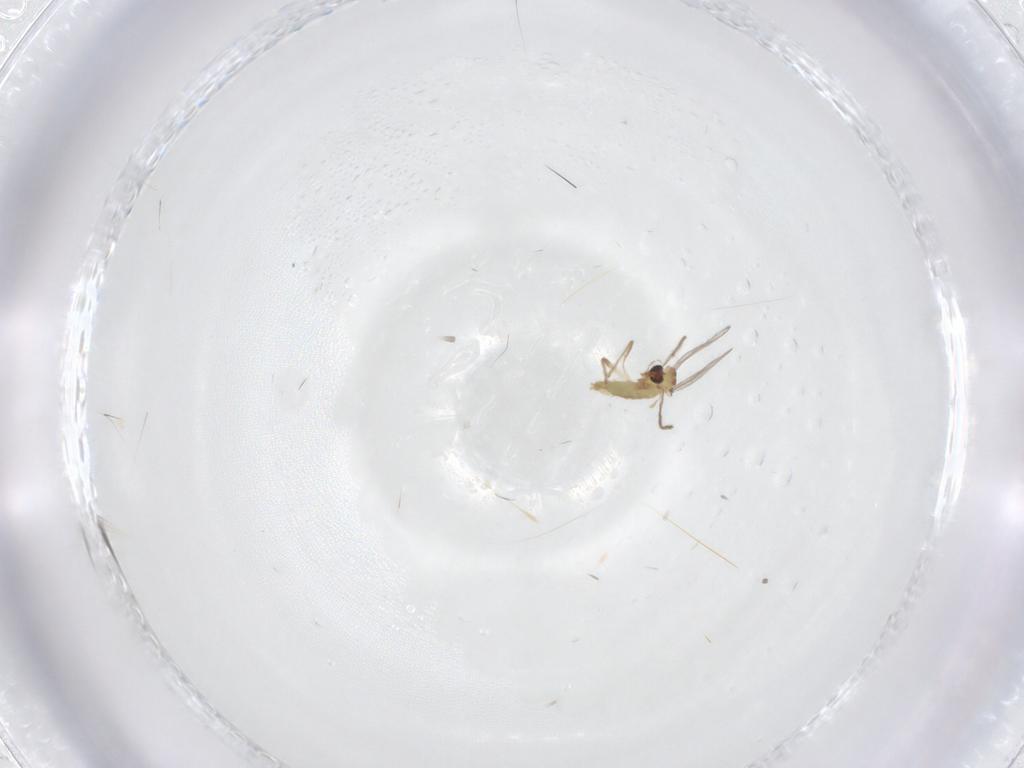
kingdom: Animalia
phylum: Arthropoda
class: Insecta
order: Diptera
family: Chironomidae
